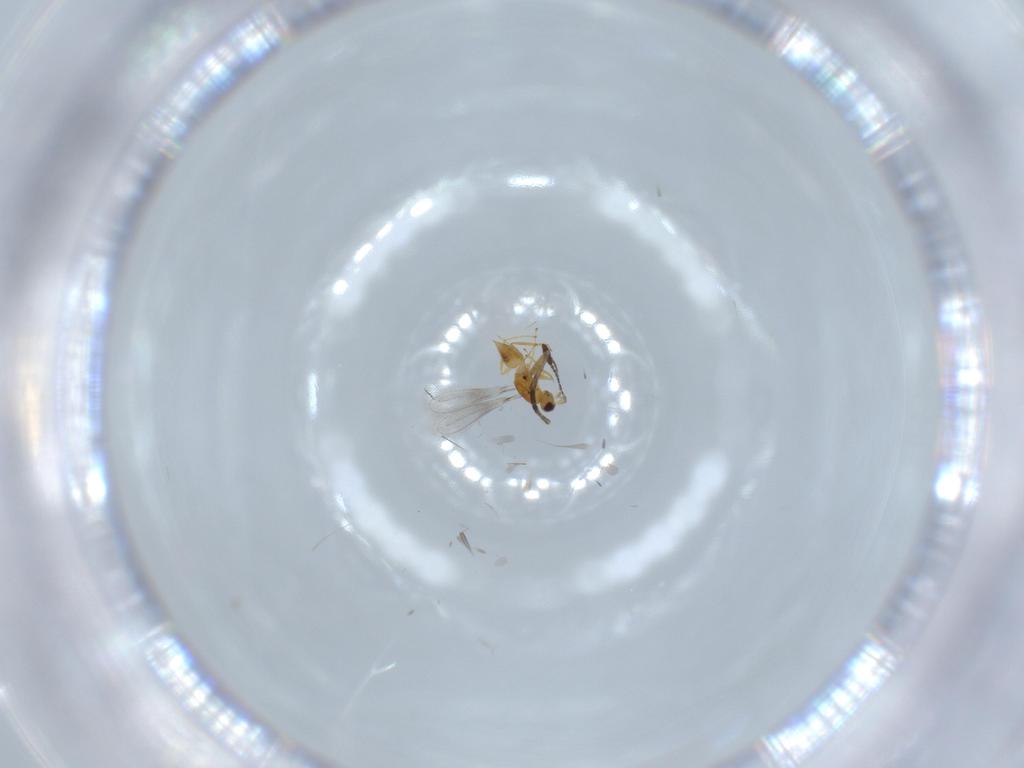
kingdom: Animalia
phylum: Arthropoda
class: Insecta
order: Hymenoptera
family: Mymaridae
